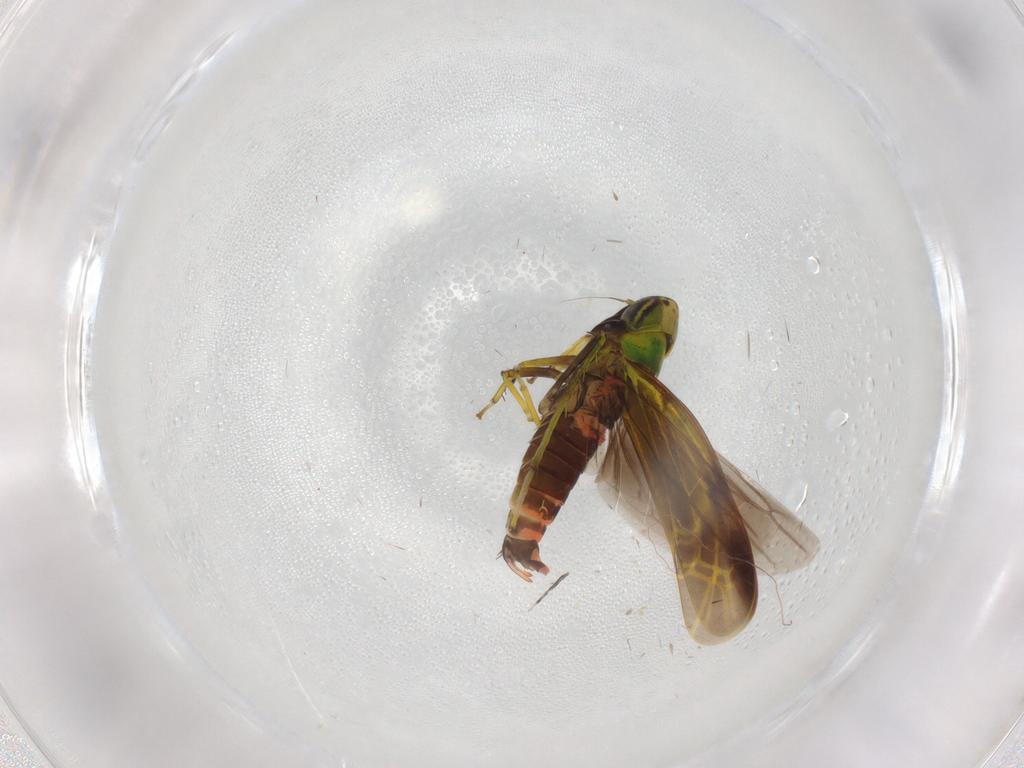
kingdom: Animalia
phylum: Arthropoda
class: Insecta
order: Hemiptera
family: Cicadellidae
